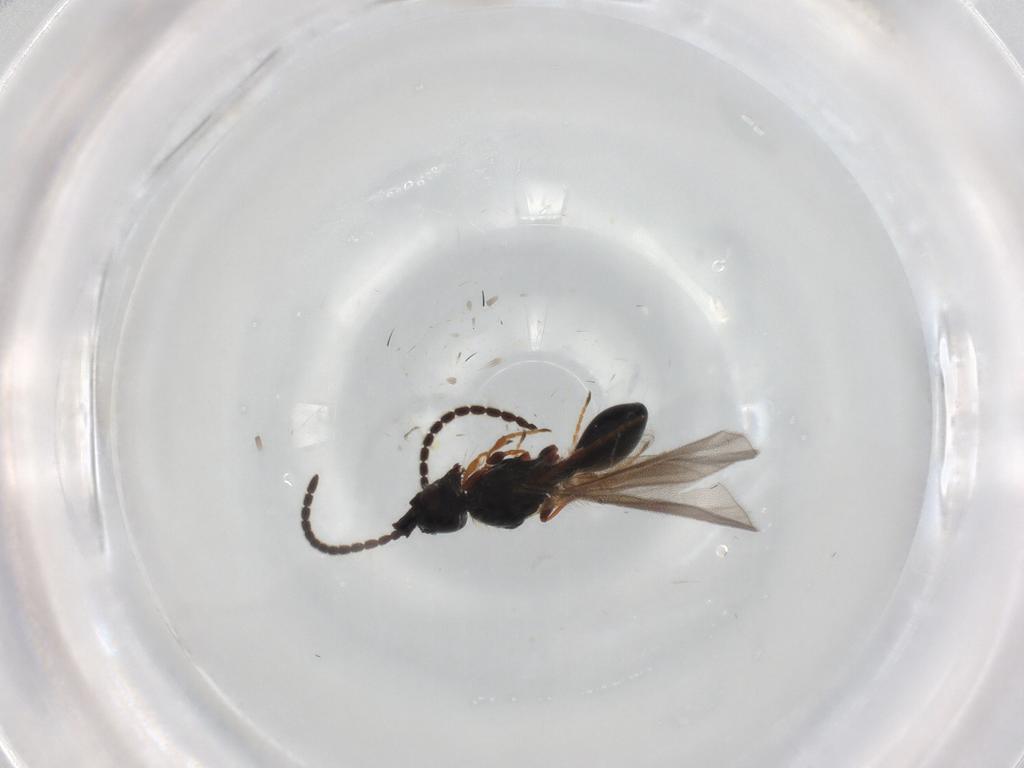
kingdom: Animalia
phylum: Arthropoda
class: Insecta
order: Hymenoptera
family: Diapriidae
